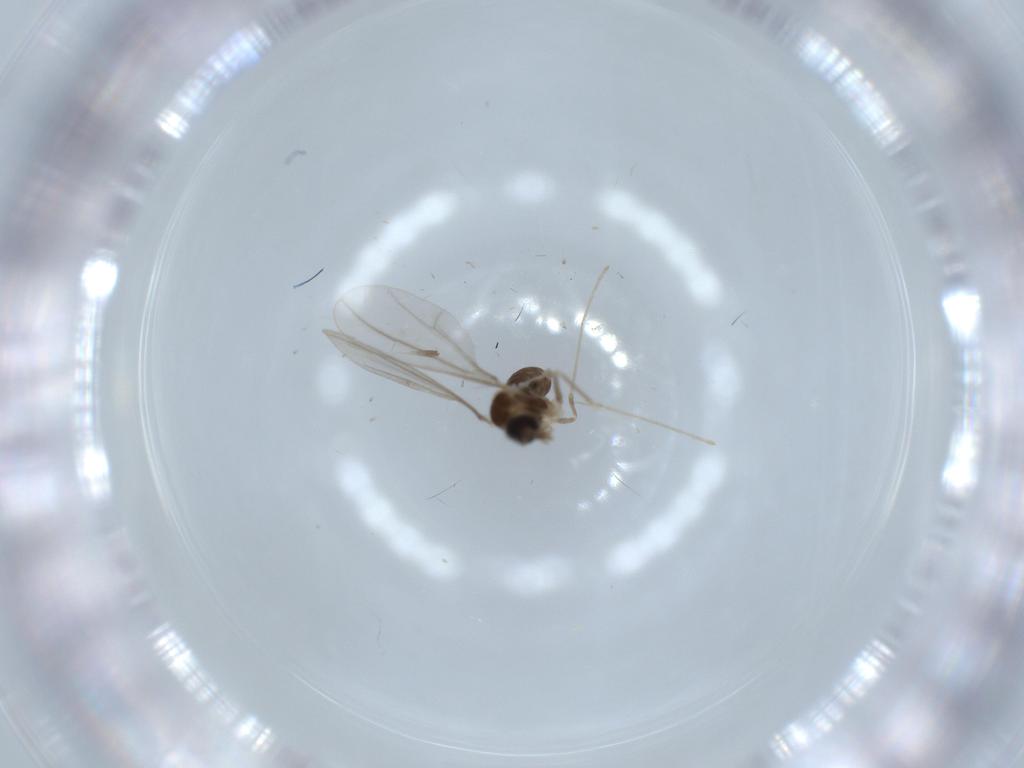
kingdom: Animalia
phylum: Arthropoda
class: Insecta
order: Diptera
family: Cecidomyiidae
